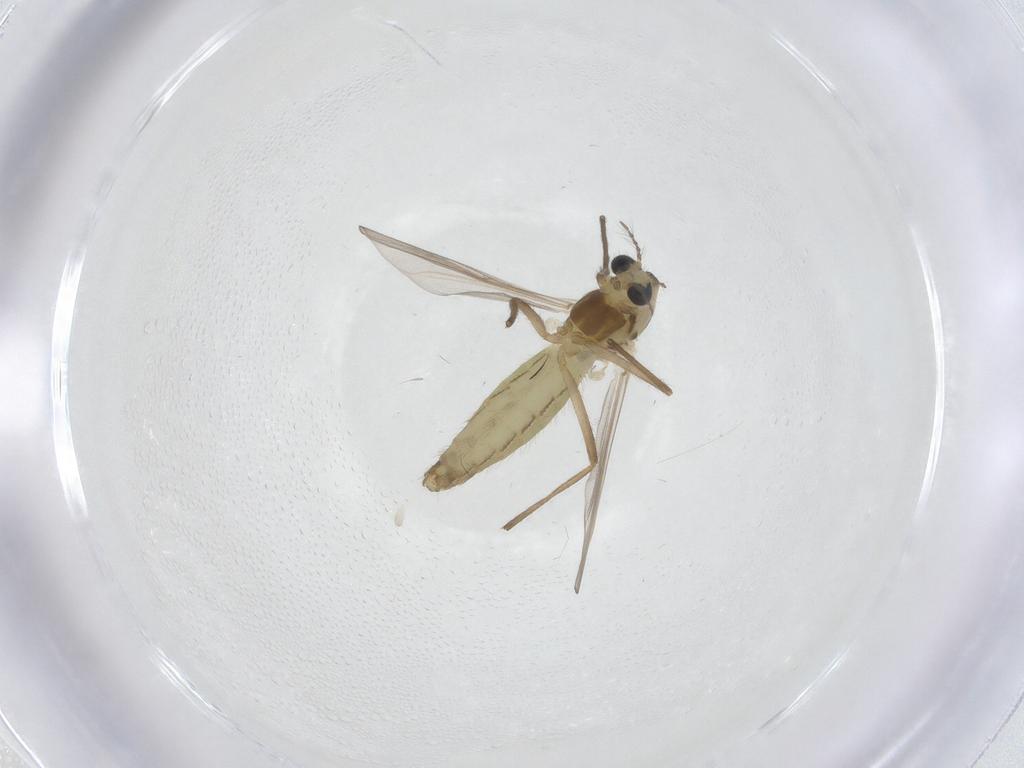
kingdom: Animalia
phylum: Arthropoda
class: Insecta
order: Diptera
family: Chironomidae
